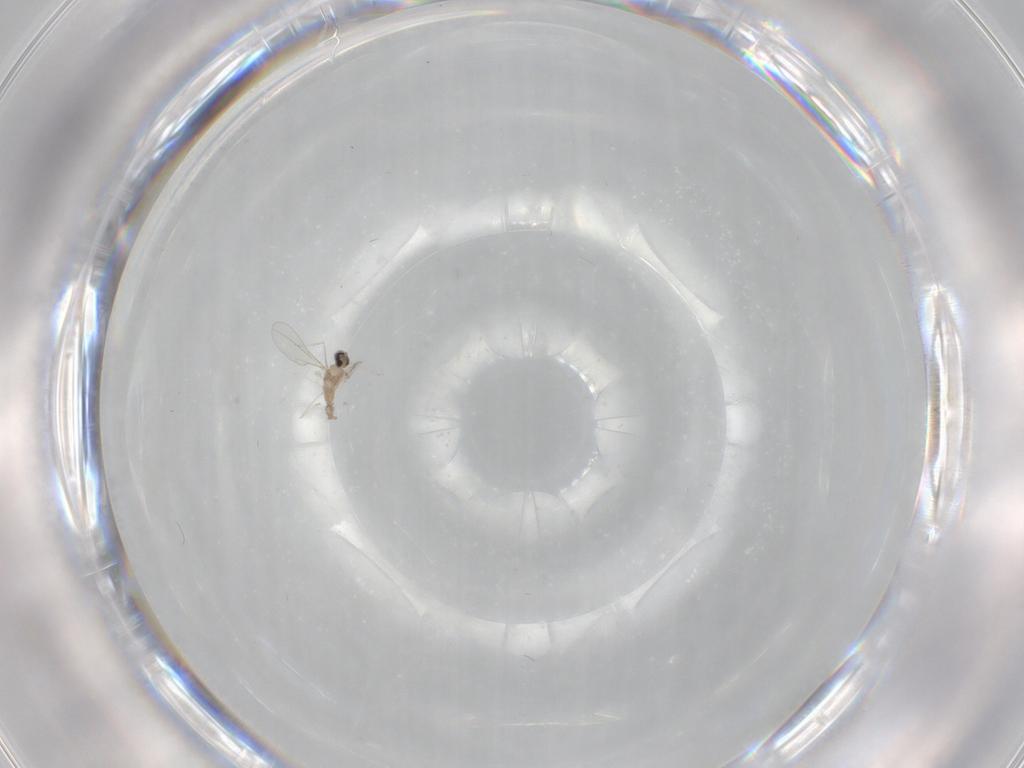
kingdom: Animalia
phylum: Arthropoda
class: Insecta
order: Diptera
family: Cecidomyiidae
